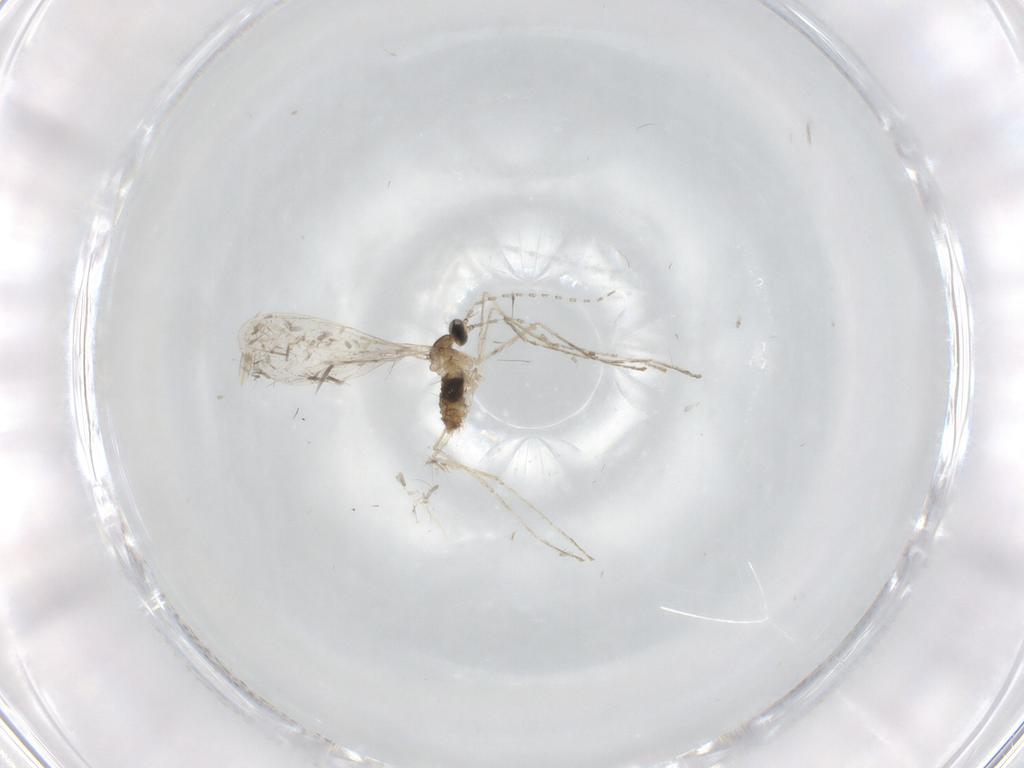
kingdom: Animalia
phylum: Arthropoda
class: Insecta
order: Diptera
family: Cecidomyiidae
